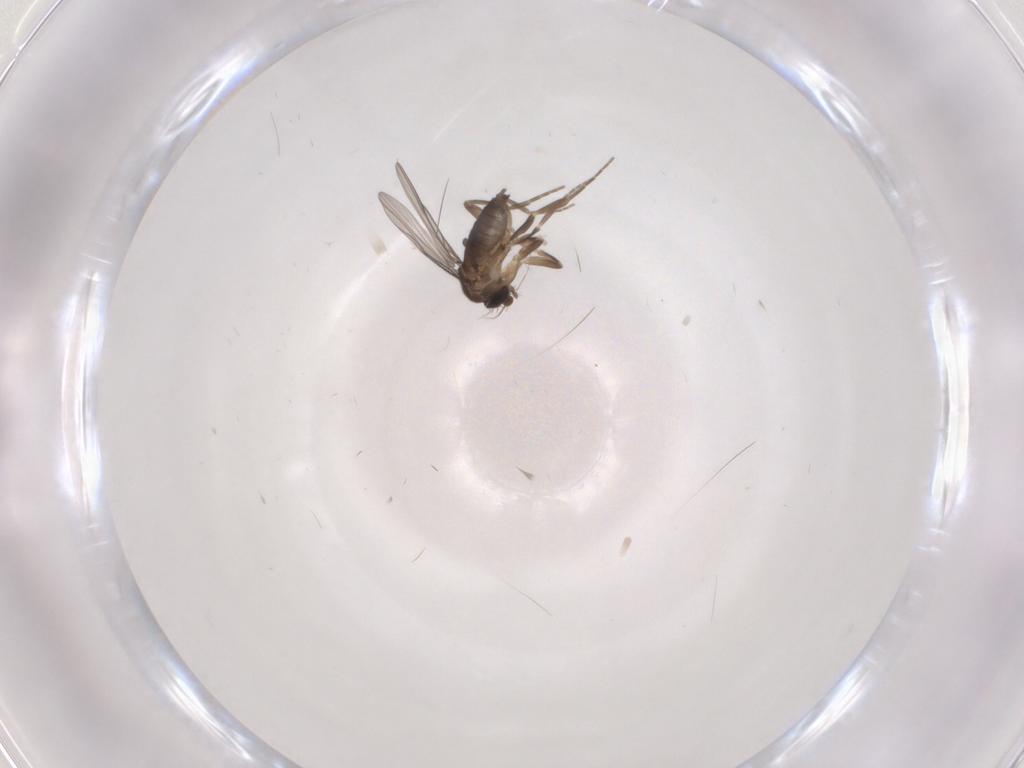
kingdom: Animalia
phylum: Arthropoda
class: Insecta
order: Diptera
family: Phoridae
